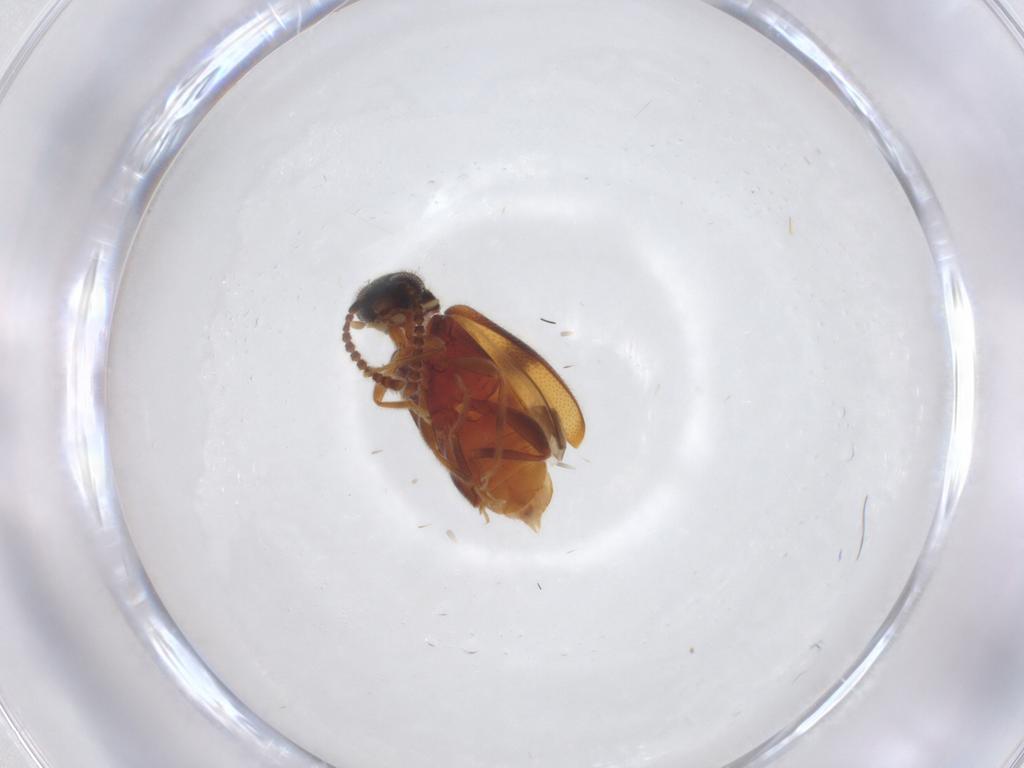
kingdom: Animalia
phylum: Arthropoda
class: Insecta
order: Coleoptera
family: Aderidae
